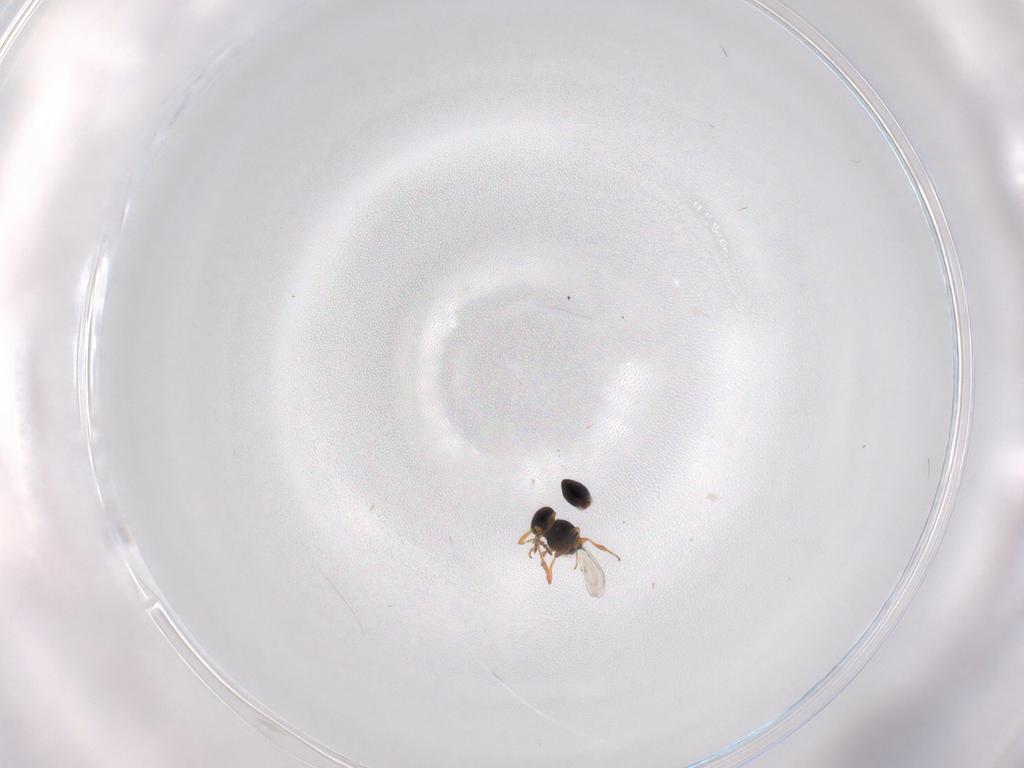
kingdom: Animalia
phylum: Arthropoda
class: Insecta
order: Hymenoptera
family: Platygastridae
